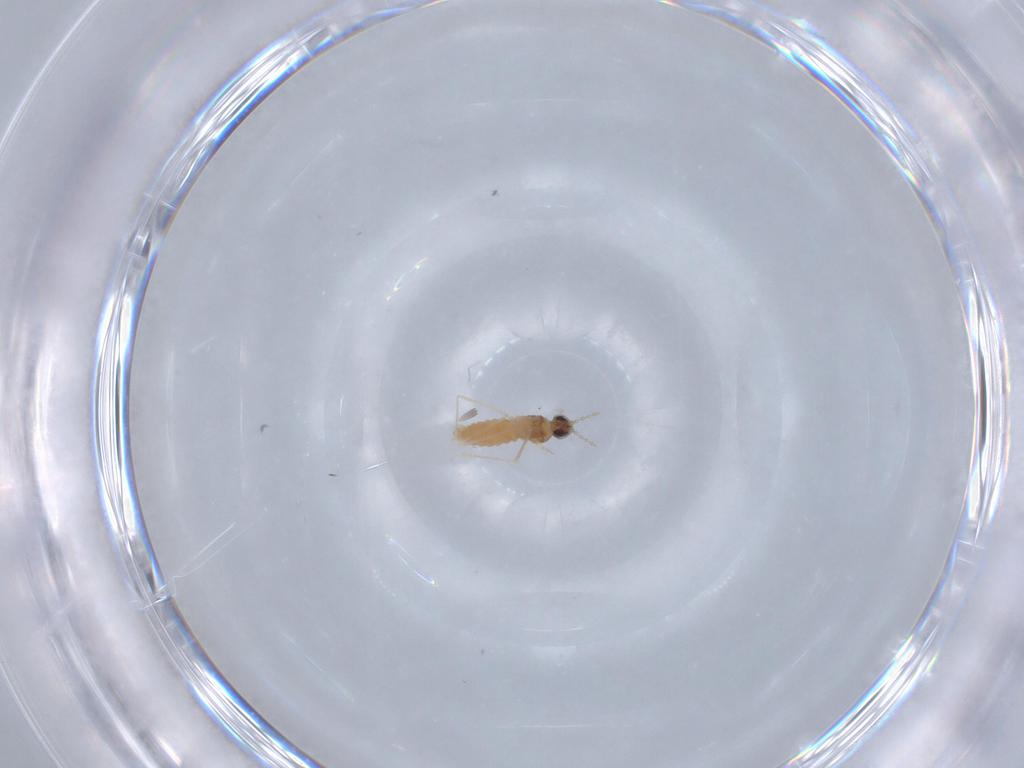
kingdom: Animalia
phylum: Arthropoda
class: Insecta
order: Diptera
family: Cecidomyiidae
